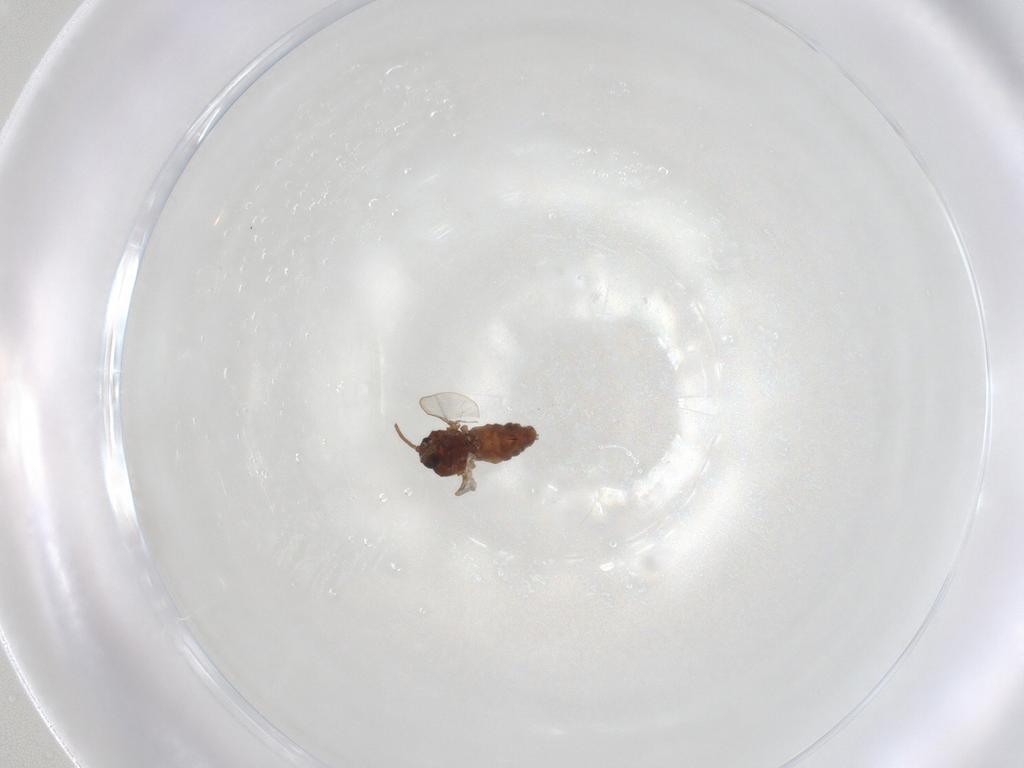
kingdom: Animalia
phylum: Arthropoda
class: Insecta
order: Diptera
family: Ceratopogonidae
